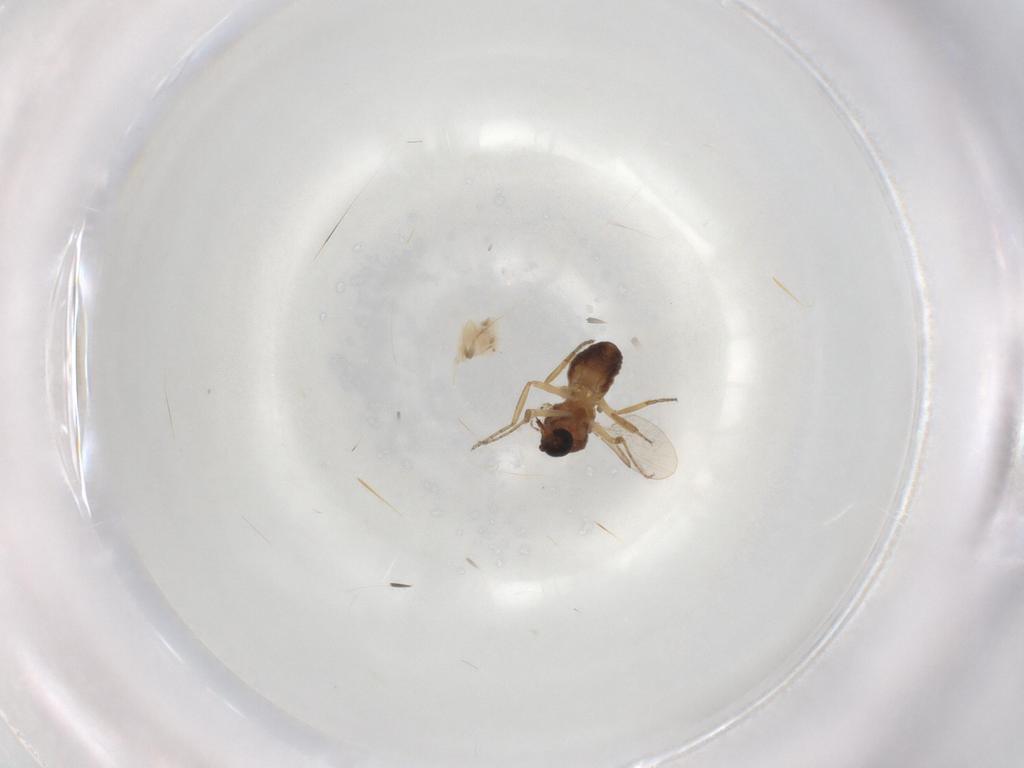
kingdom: Animalia
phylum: Arthropoda
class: Insecta
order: Diptera
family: Ceratopogonidae
